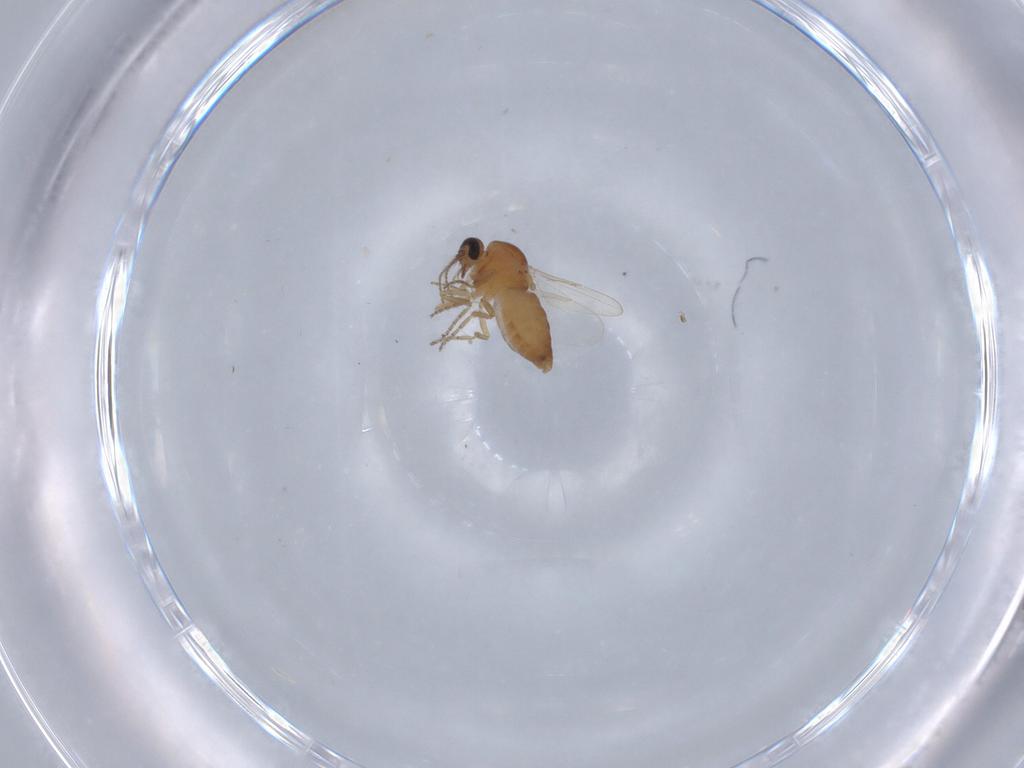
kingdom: Animalia
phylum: Arthropoda
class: Insecta
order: Diptera
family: Ceratopogonidae
